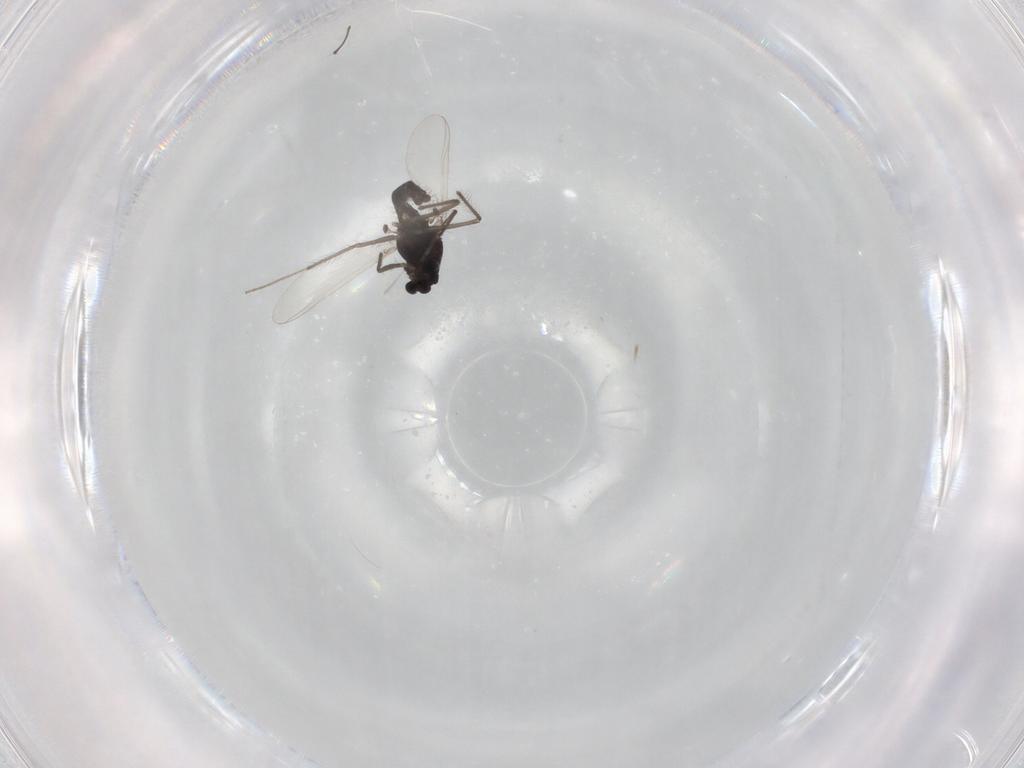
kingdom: Animalia
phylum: Arthropoda
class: Insecta
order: Diptera
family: Chironomidae
